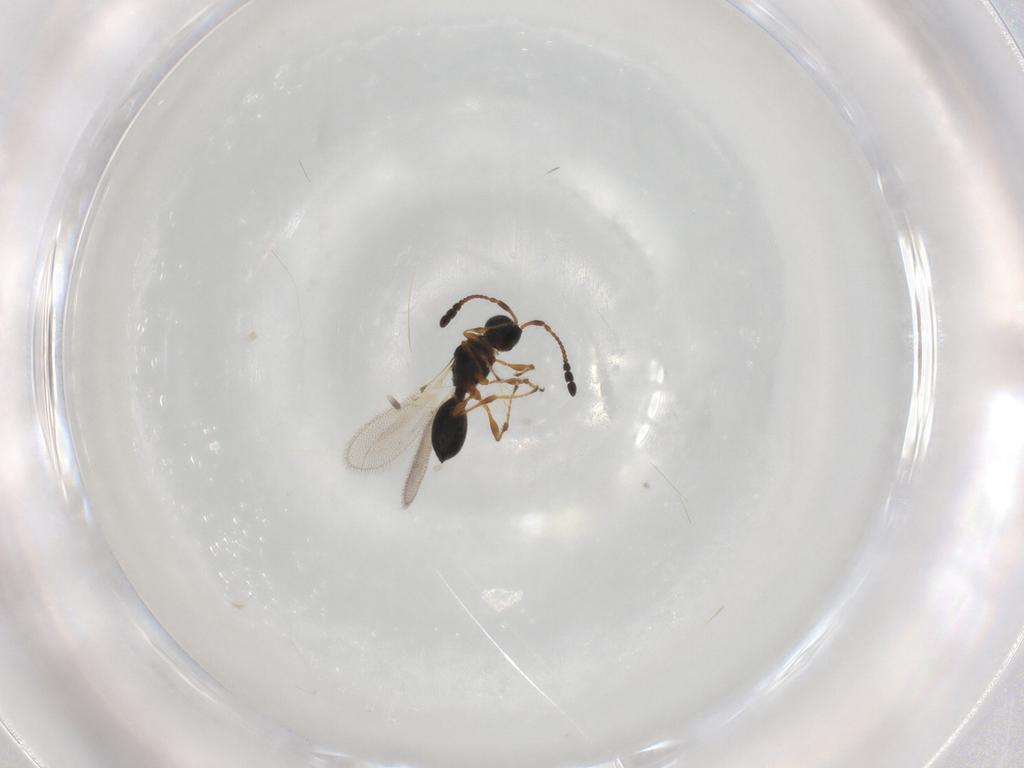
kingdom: Animalia
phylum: Arthropoda
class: Insecta
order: Hymenoptera
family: Diapriidae
